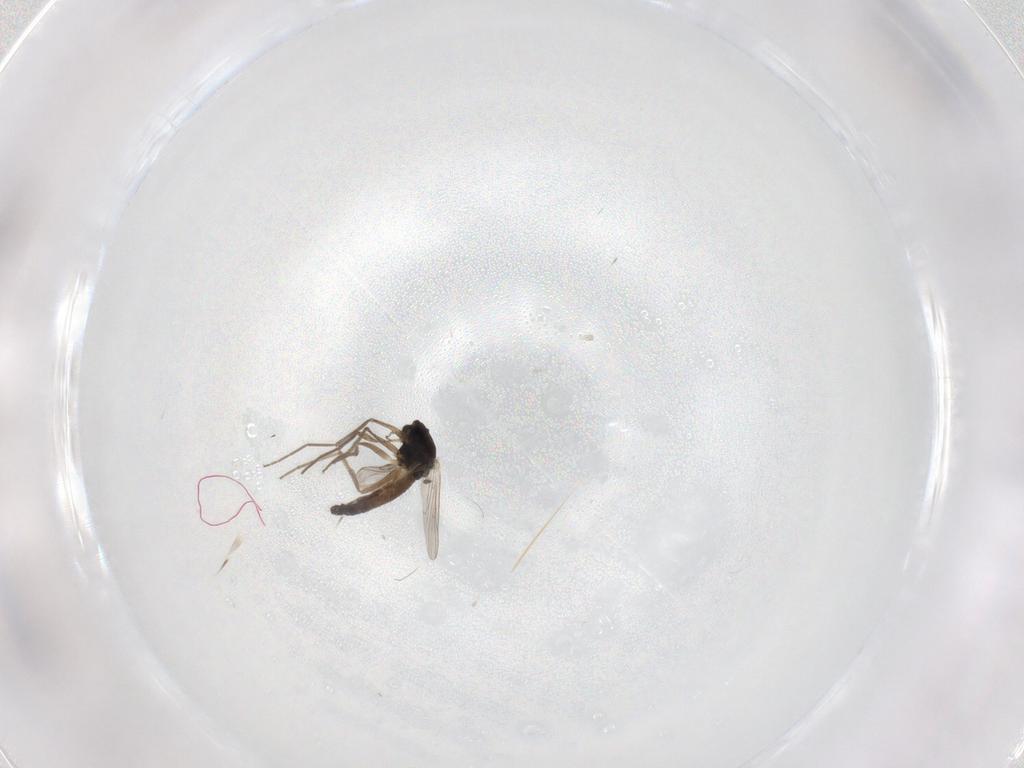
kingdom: Animalia
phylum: Arthropoda
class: Insecta
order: Diptera
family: Chironomidae
